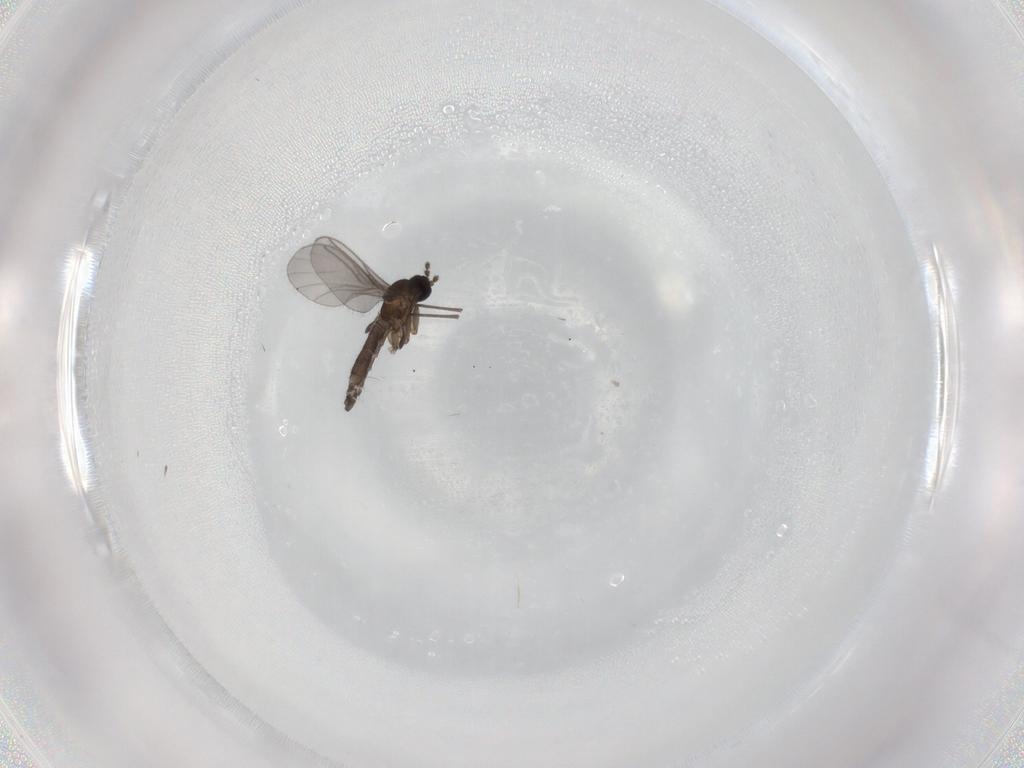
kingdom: Animalia
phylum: Arthropoda
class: Insecta
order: Diptera
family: Sciaridae
